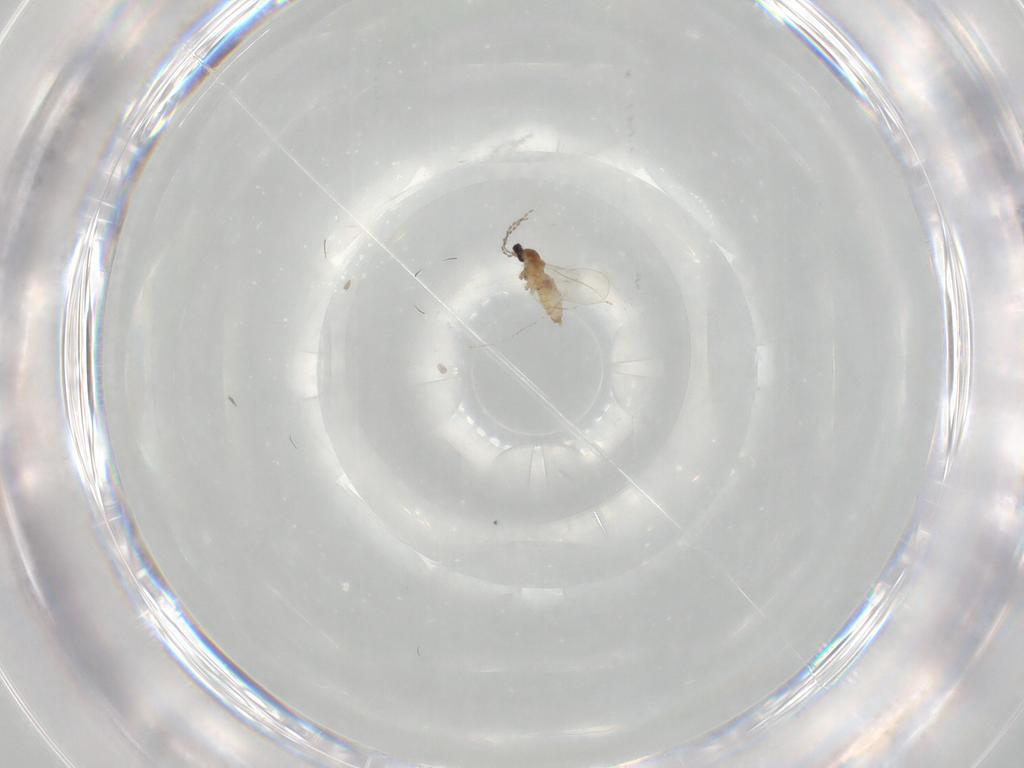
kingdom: Animalia
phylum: Arthropoda
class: Insecta
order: Diptera
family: Cecidomyiidae
